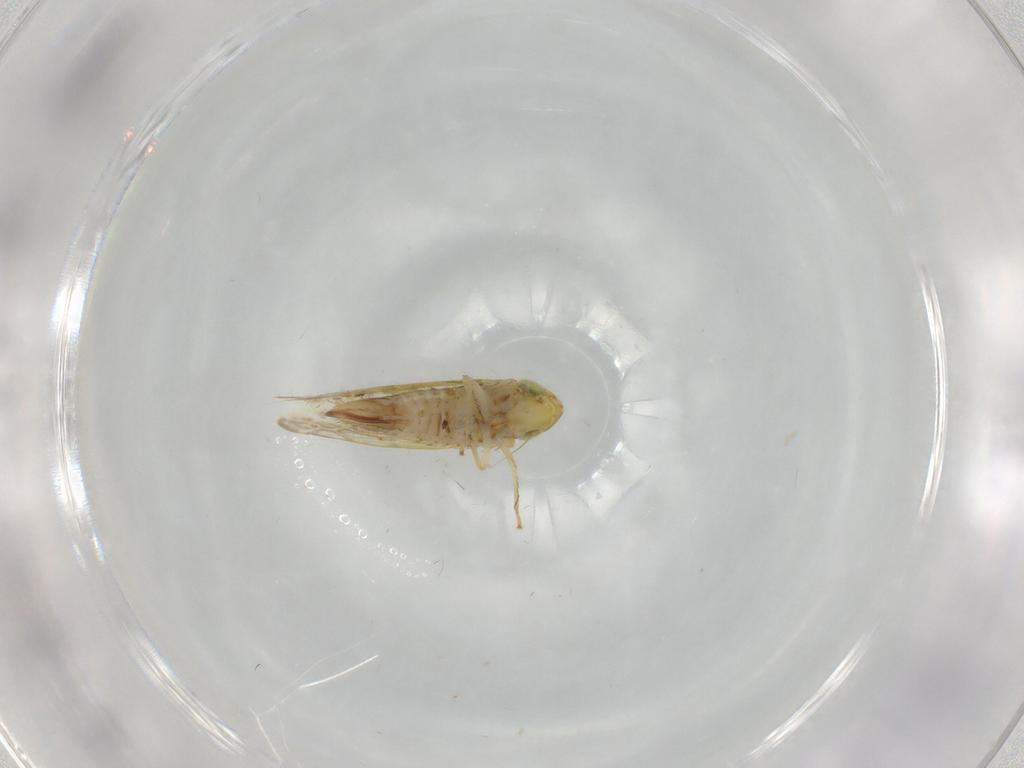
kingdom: Animalia
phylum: Arthropoda
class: Insecta
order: Hemiptera
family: Cicadellidae
